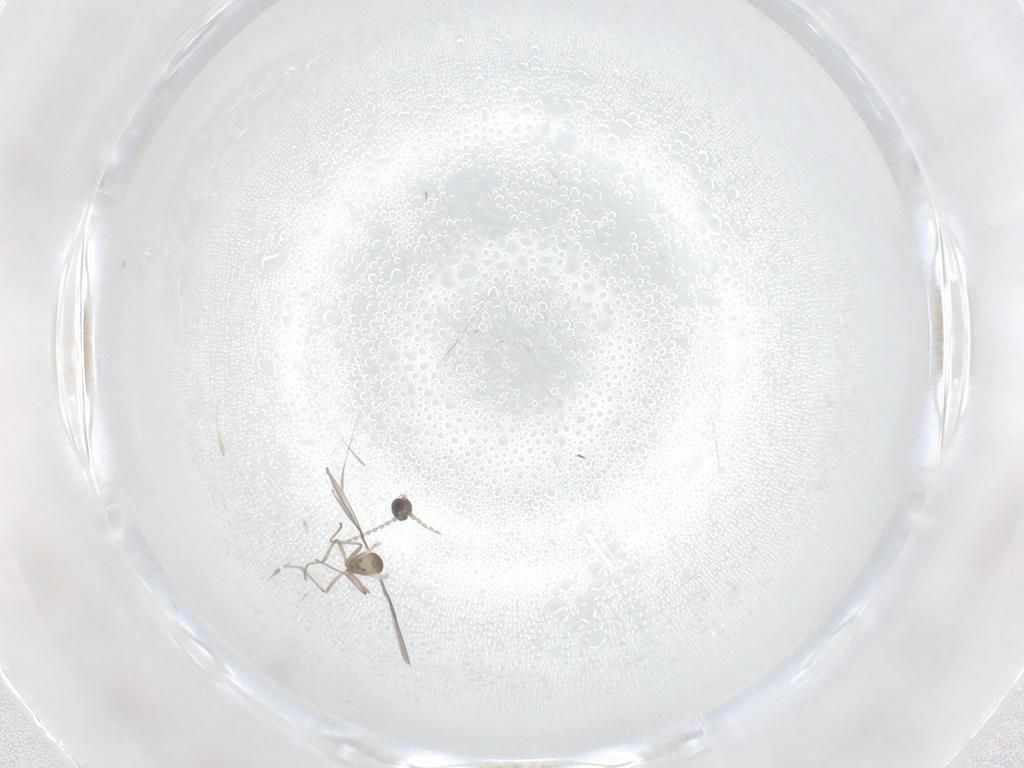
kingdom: Animalia
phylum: Arthropoda
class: Insecta
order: Diptera
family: Cecidomyiidae
